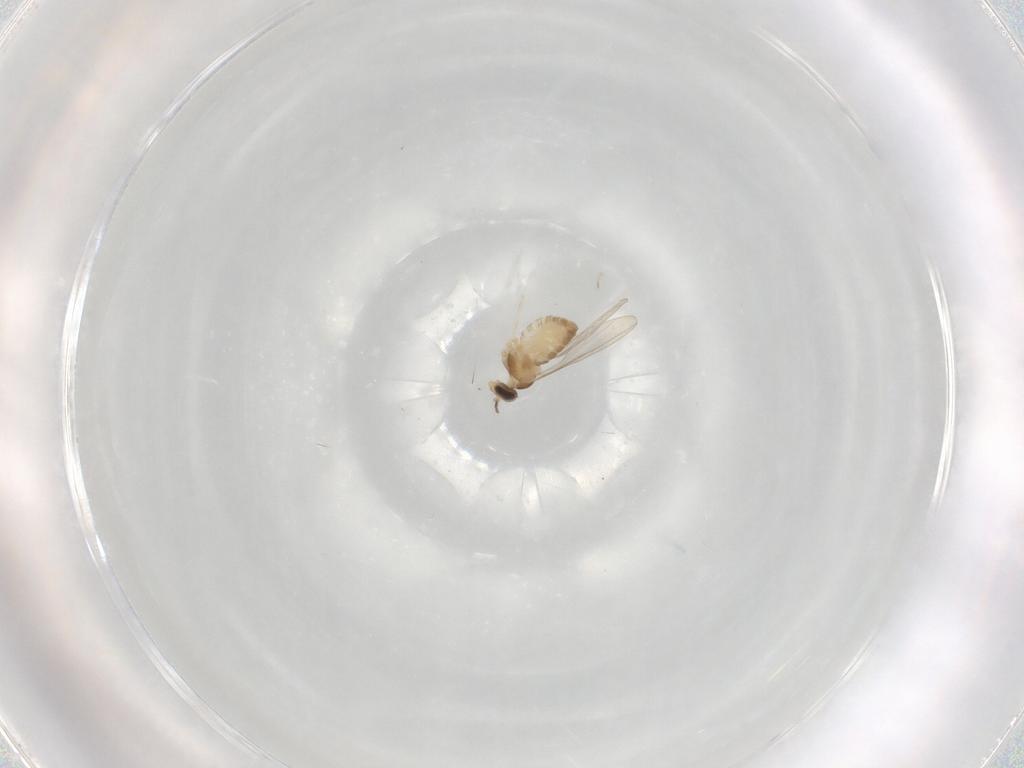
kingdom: Animalia
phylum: Arthropoda
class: Insecta
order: Diptera
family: Cecidomyiidae
